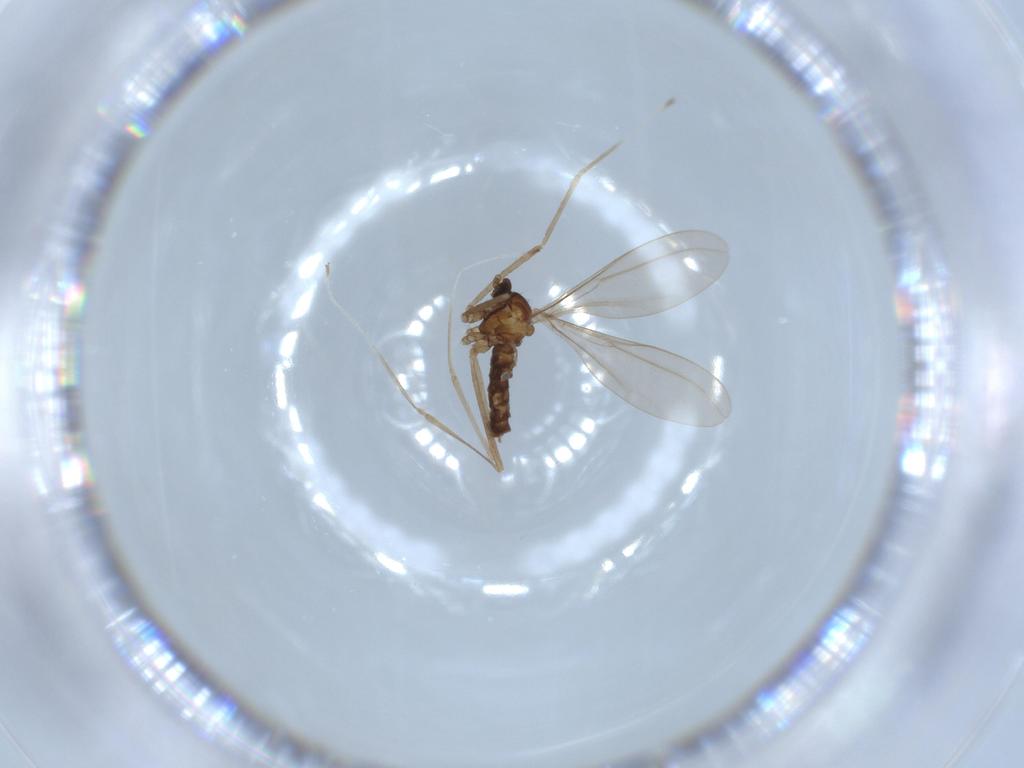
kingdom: Animalia
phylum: Arthropoda
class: Insecta
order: Diptera
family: Cecidomyiidae
